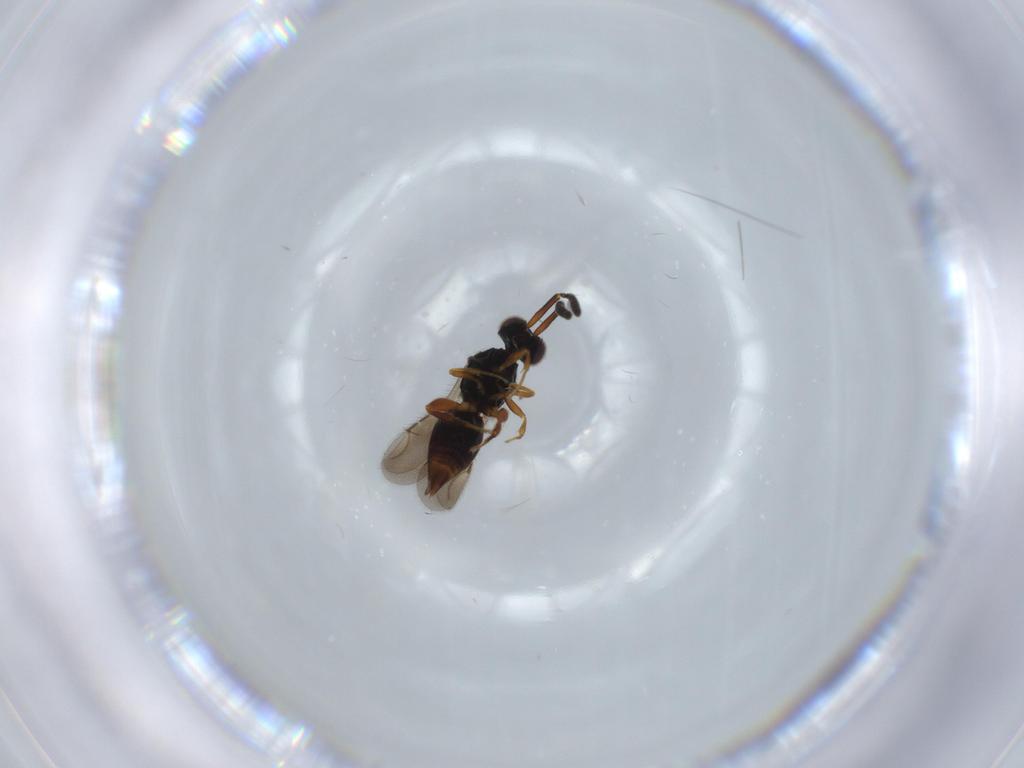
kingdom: Animalia
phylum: Arthropoda
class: Insecta
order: Hymenoptera
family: Ceraphronidae
